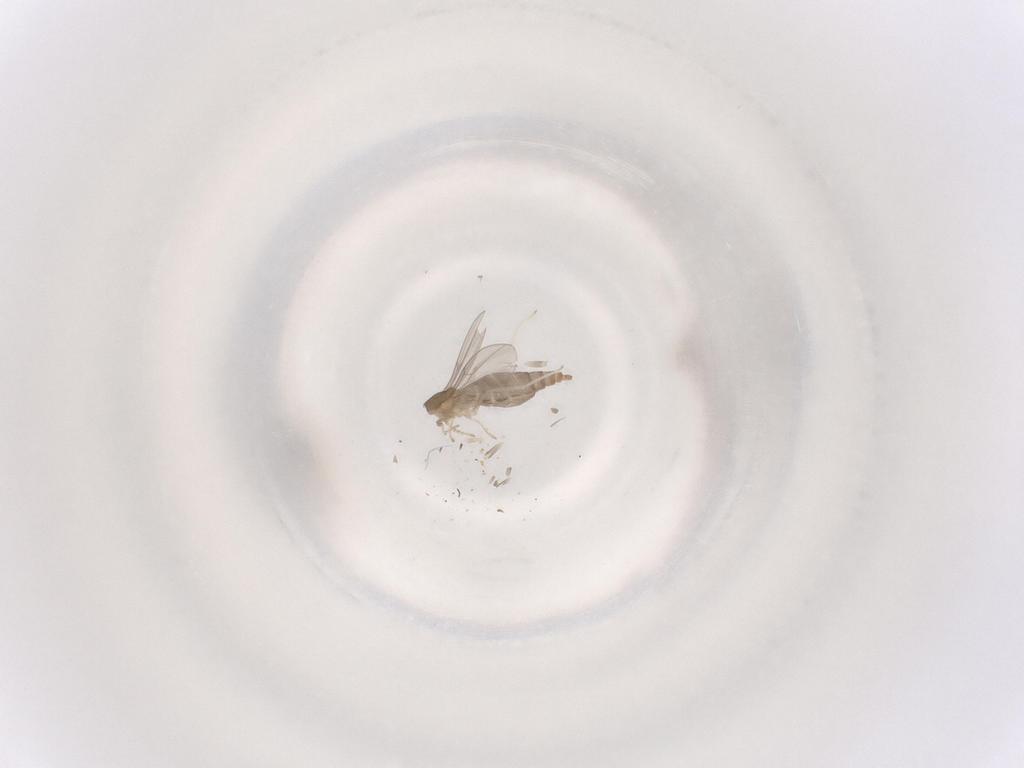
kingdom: Animalia
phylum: Arthropoda
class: Insecta
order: Diptera
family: Cecidomyiidae
